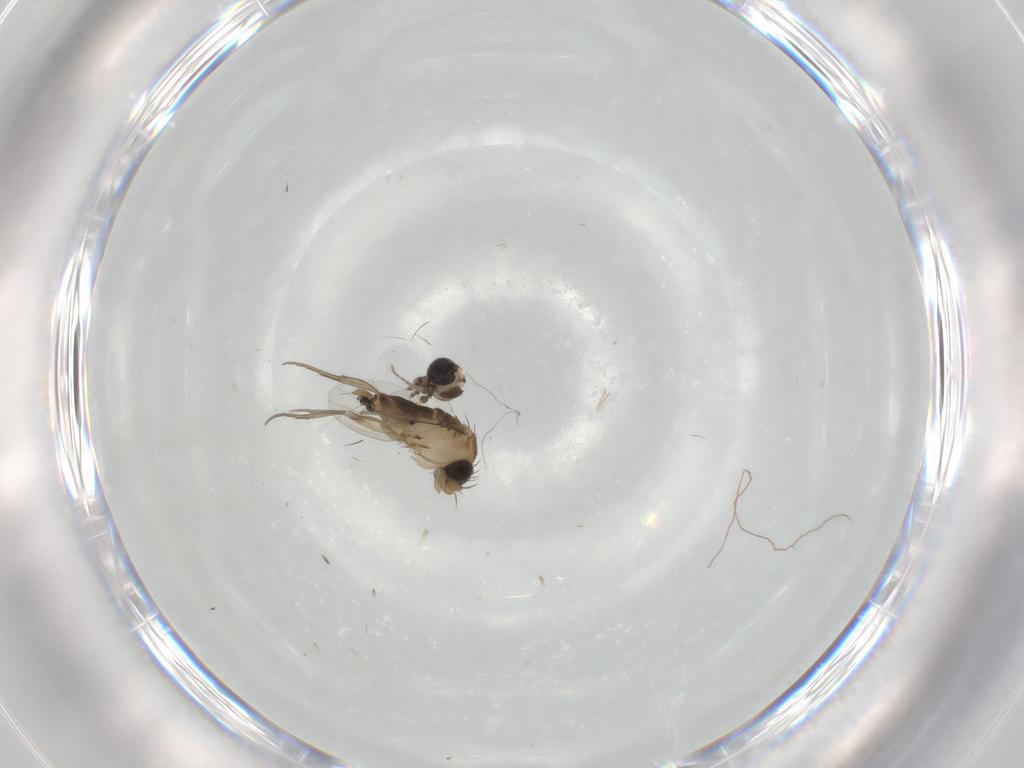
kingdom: Animalia
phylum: Arthropoda
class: Insecta
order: Diptera
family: Limoniidae
